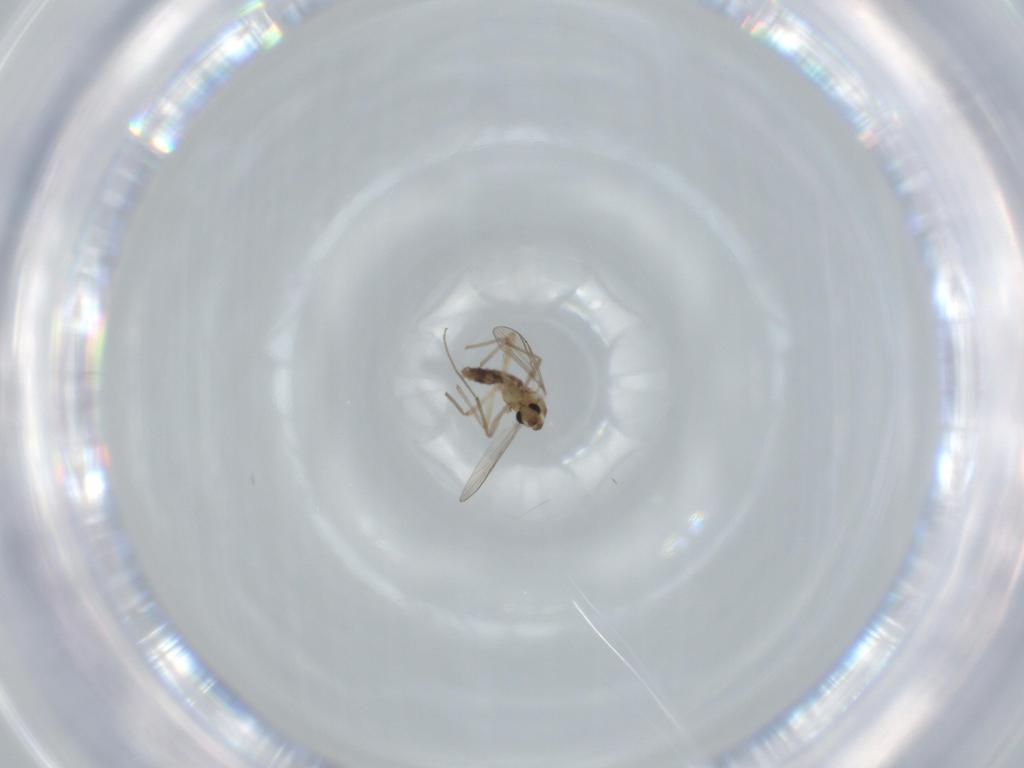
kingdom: Animalia
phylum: Arthropoda
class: Insecta
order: Diptera
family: Chironomidae
